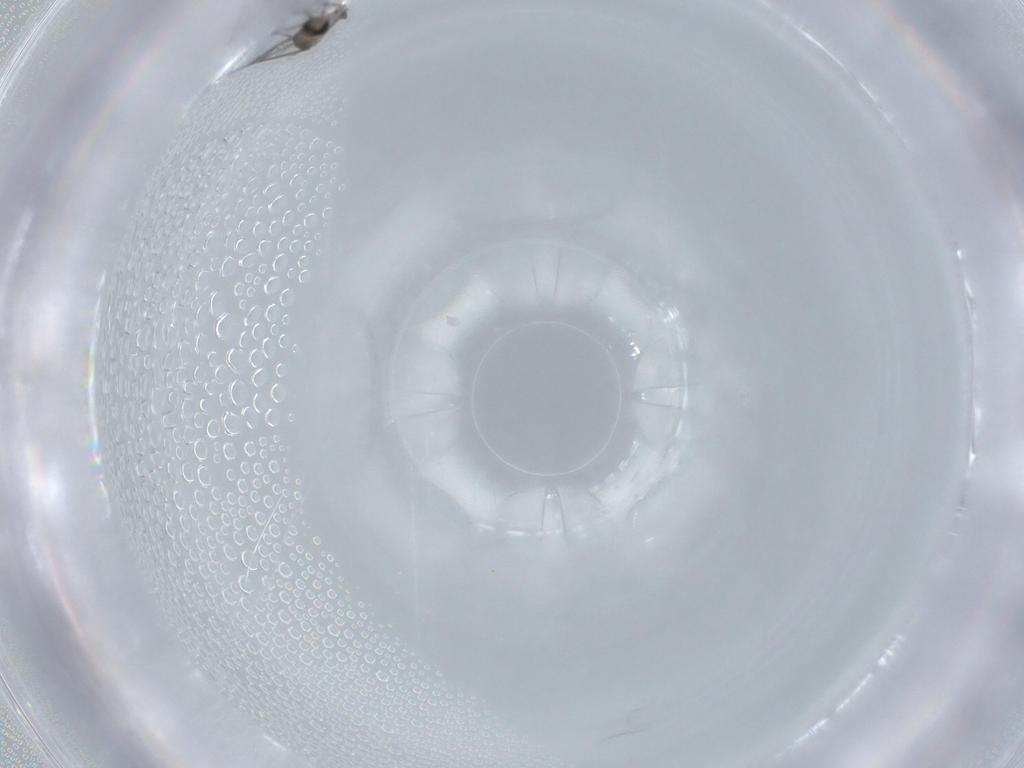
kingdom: Animalia
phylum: Arthropoda
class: Insecta
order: Diptera
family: Cecidomyiidae
